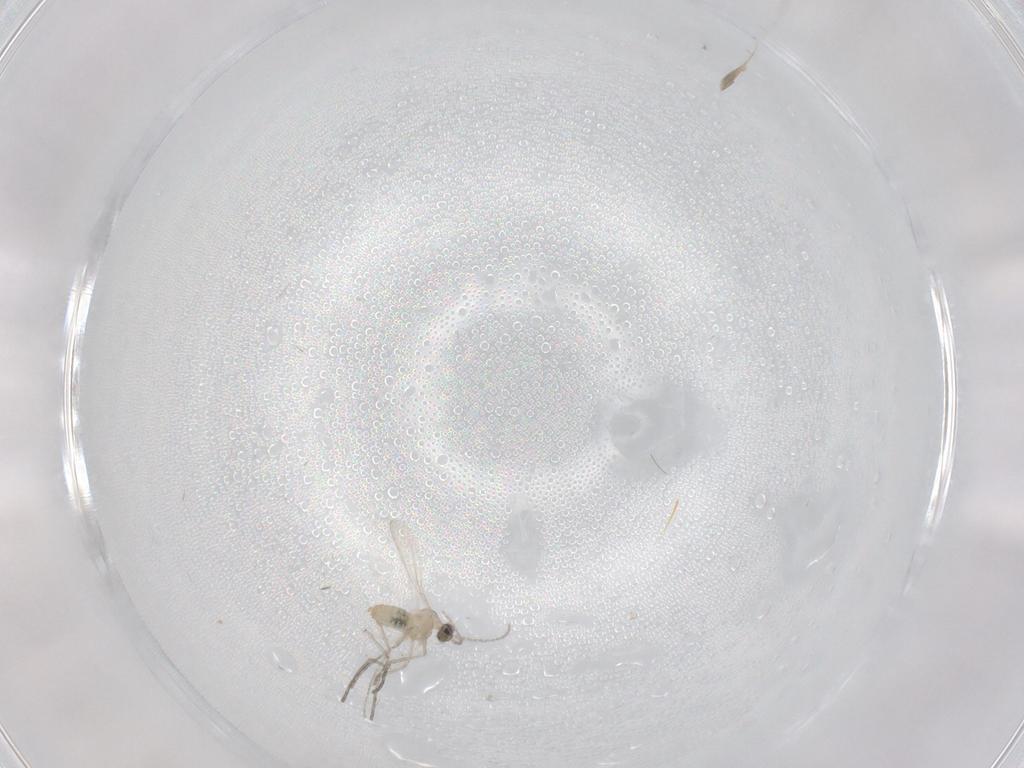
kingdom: Animalia
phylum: Arthropoda
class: Insecta
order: Diptera
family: Cecidomyiidae
